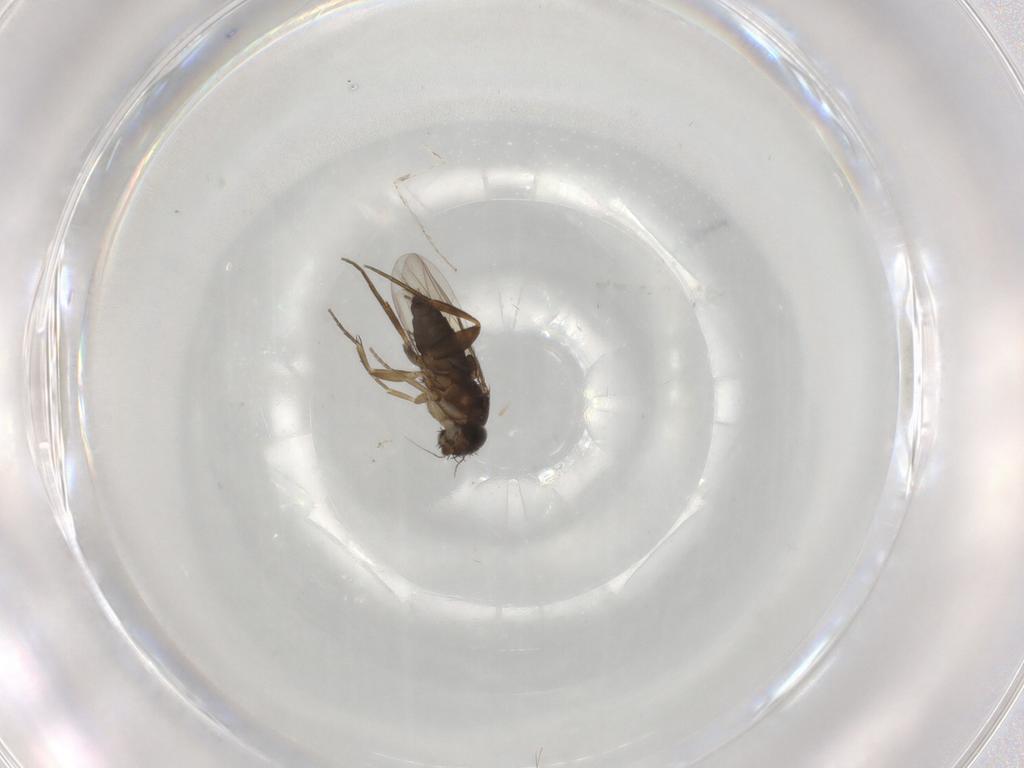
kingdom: Animalia
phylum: Arthropoda
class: Insecta
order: Diptera
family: Phoridae
